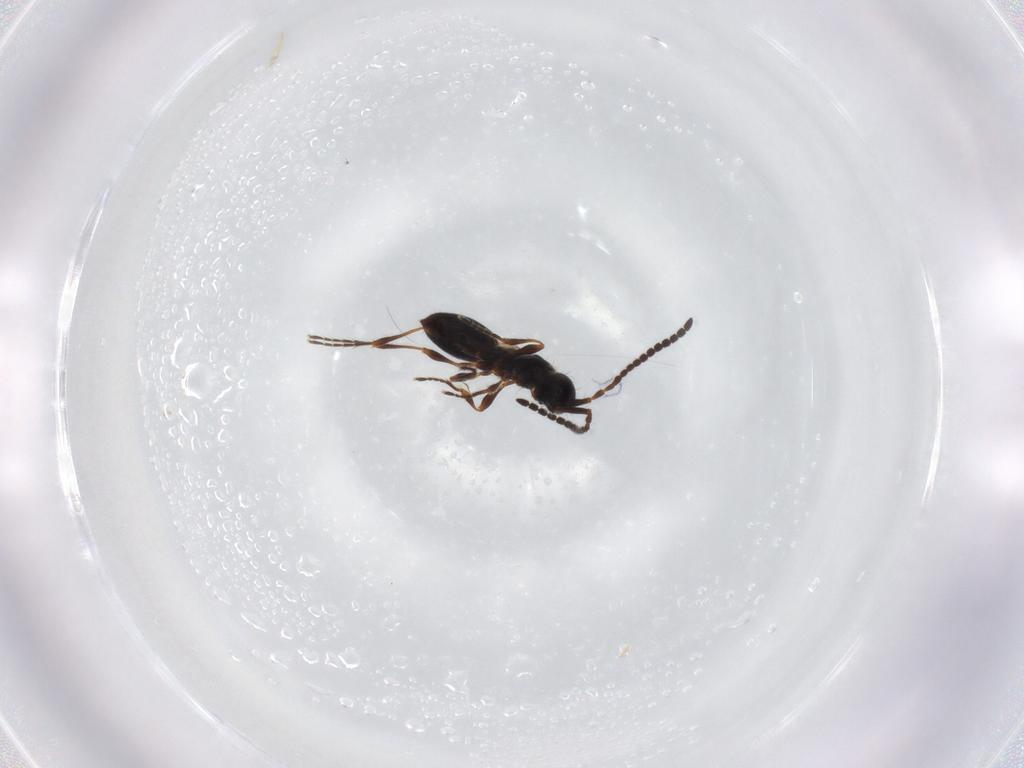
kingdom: Animalia
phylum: Arthropoda
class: Insecta
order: Hymenoptera
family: Diapriidae
